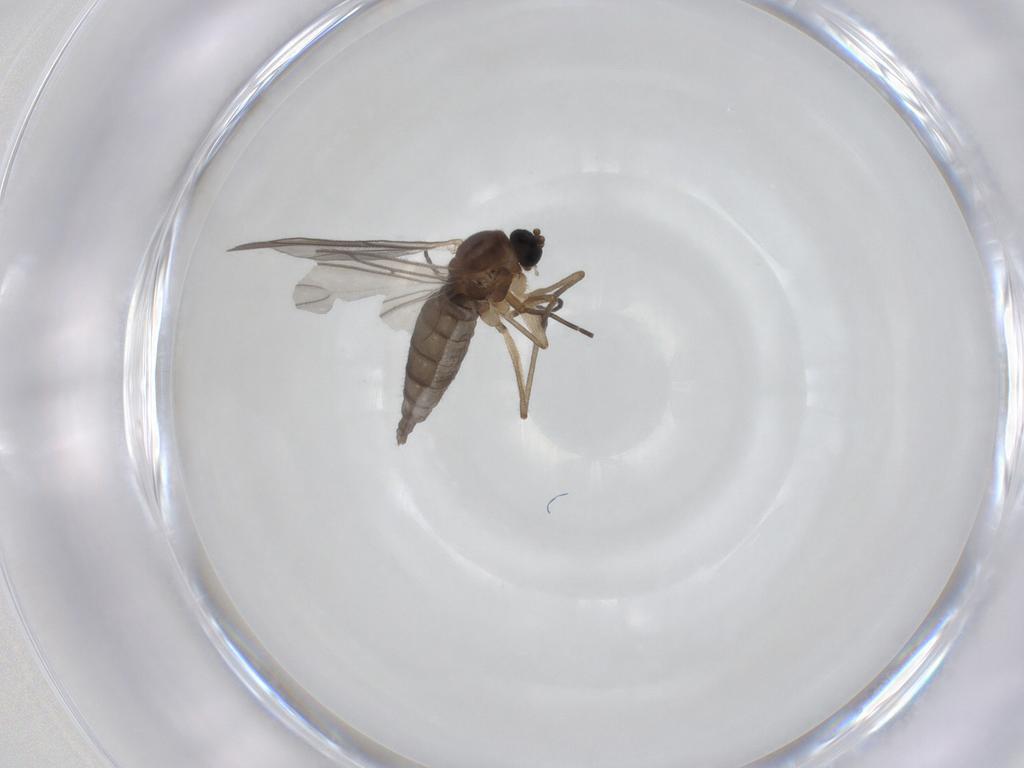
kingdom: Animalia
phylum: Arthropoda
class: Insecta
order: Diptera
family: Sciaridae
